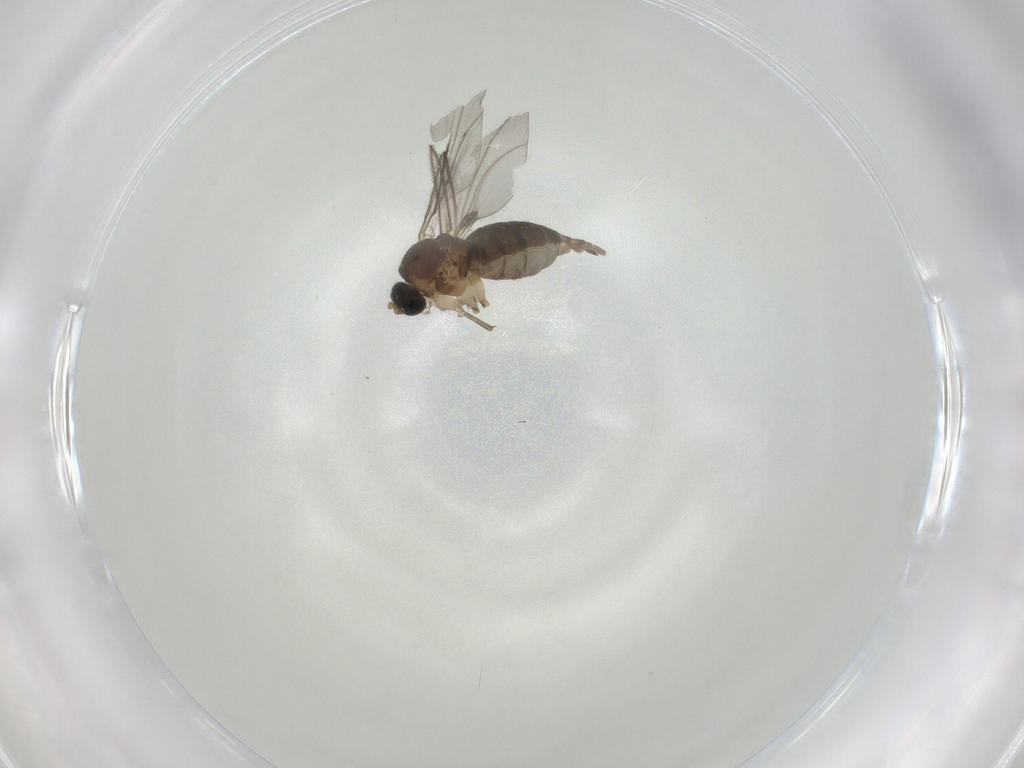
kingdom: Animalia
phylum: Arthropoda
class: Insecta
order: Diptera
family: Sciaridae
